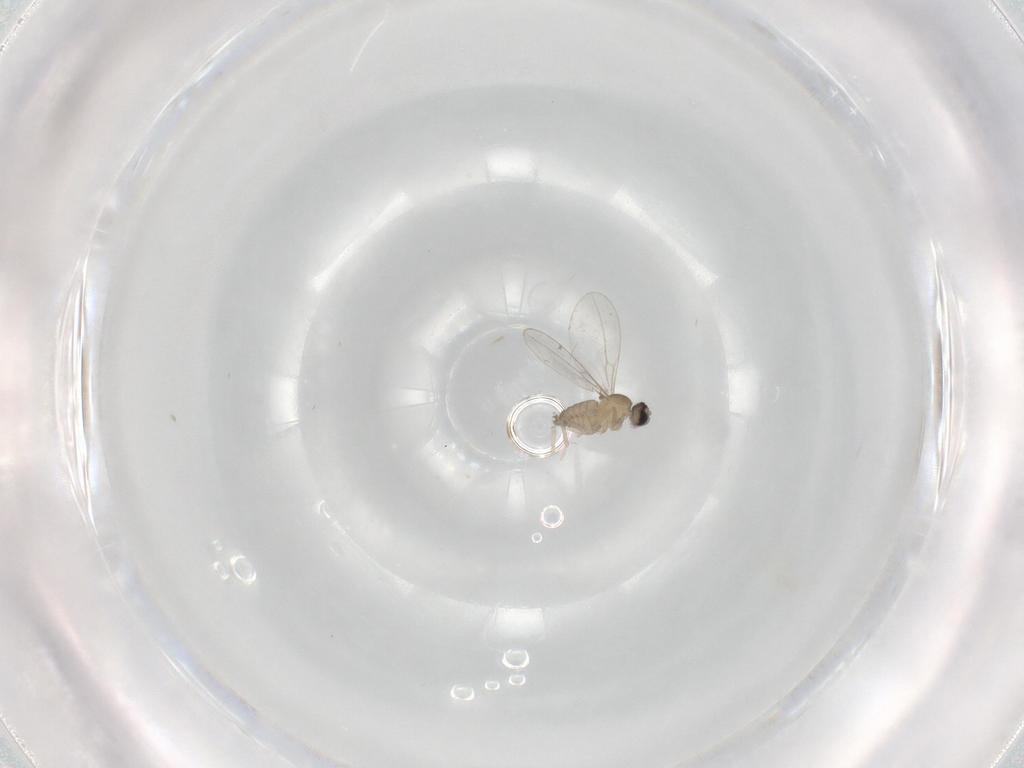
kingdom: Animalia
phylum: Arthropoda
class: Insecta
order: Diptera
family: Cecidomyiidae
